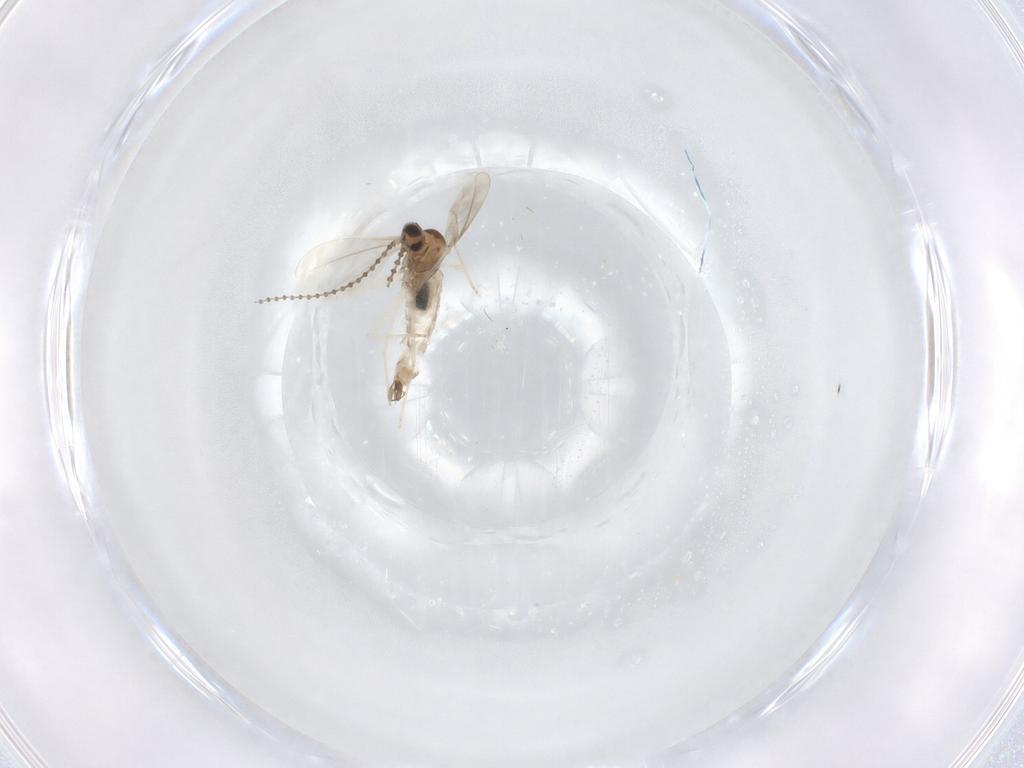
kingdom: Animalia
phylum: Arthropoda
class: Insecta
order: Diptera
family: Cecidomyiidae
